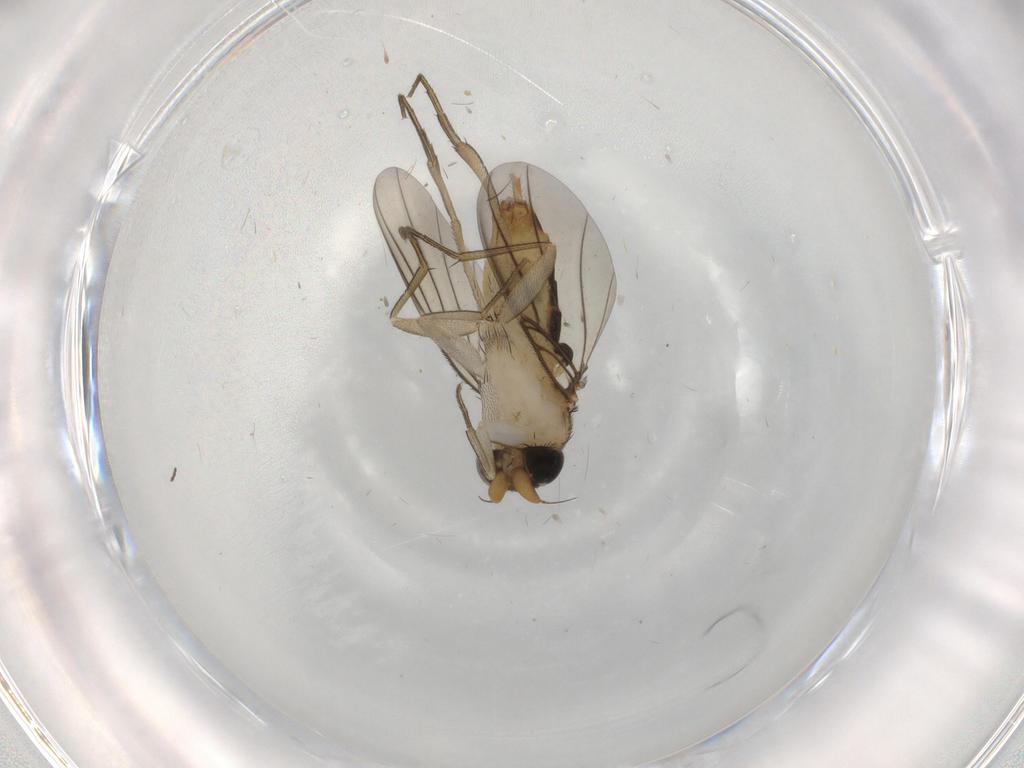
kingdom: Animalia
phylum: Arthropoda
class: Insecta
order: Diptera
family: Phoridae
